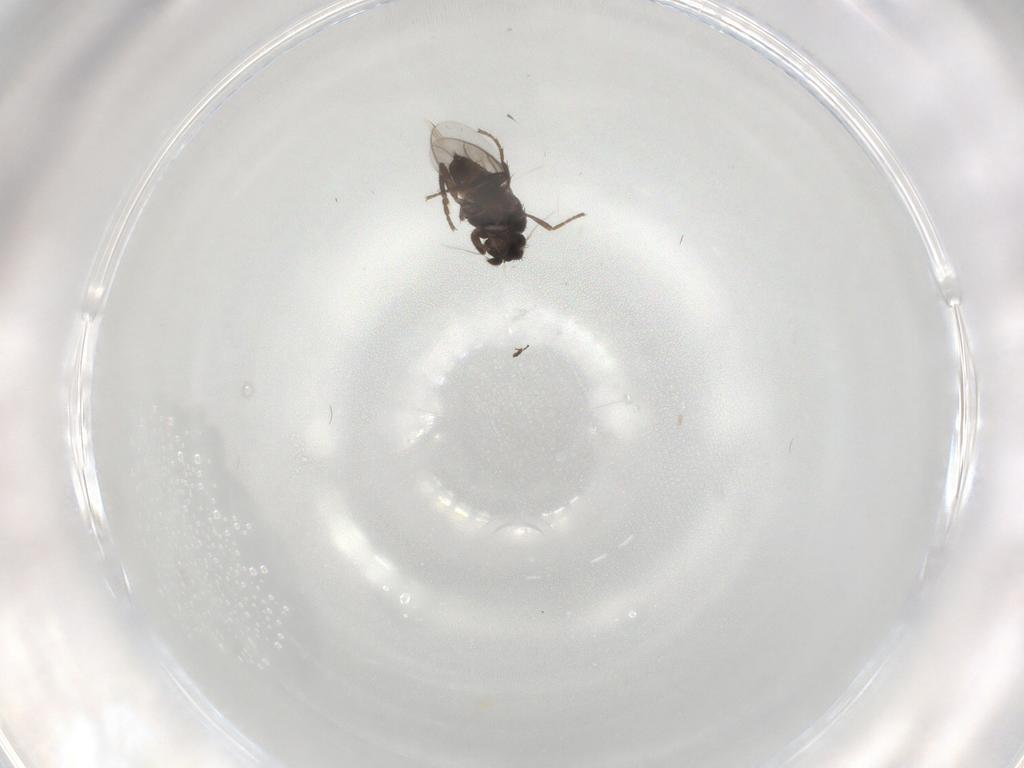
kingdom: Animalia
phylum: Arthropoda
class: Insecta
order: Diptera
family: Sphaeroceridae
